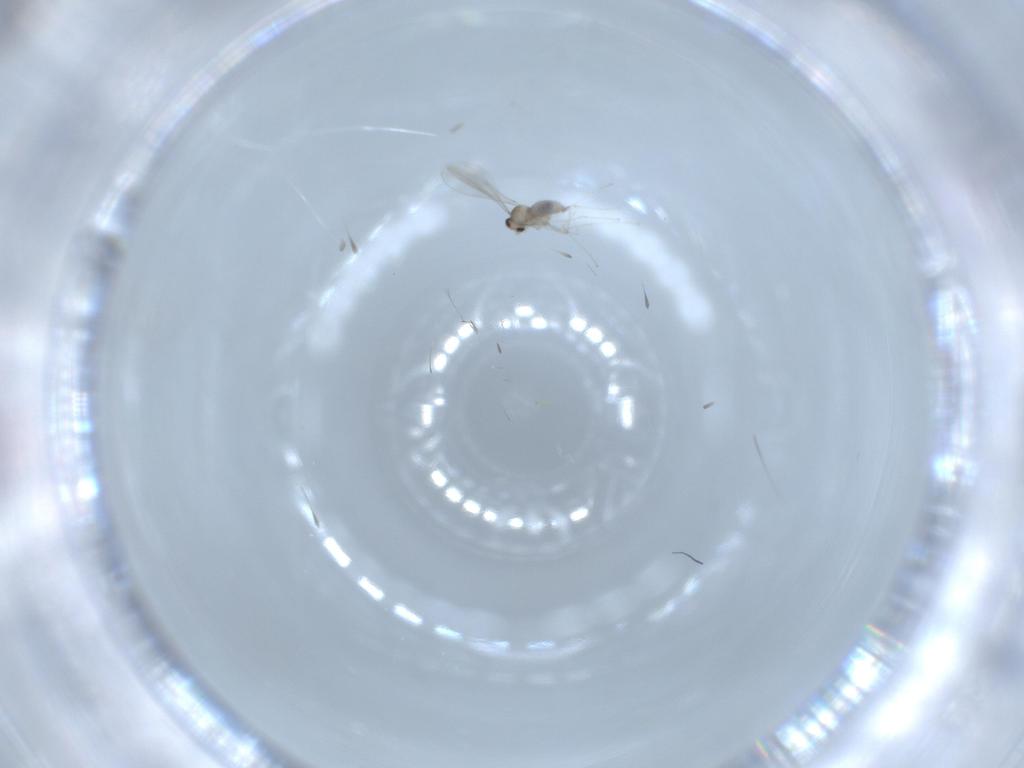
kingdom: Animalia
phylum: Arthropoda
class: Insecta
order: Diptera
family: Cecidomyiidae
